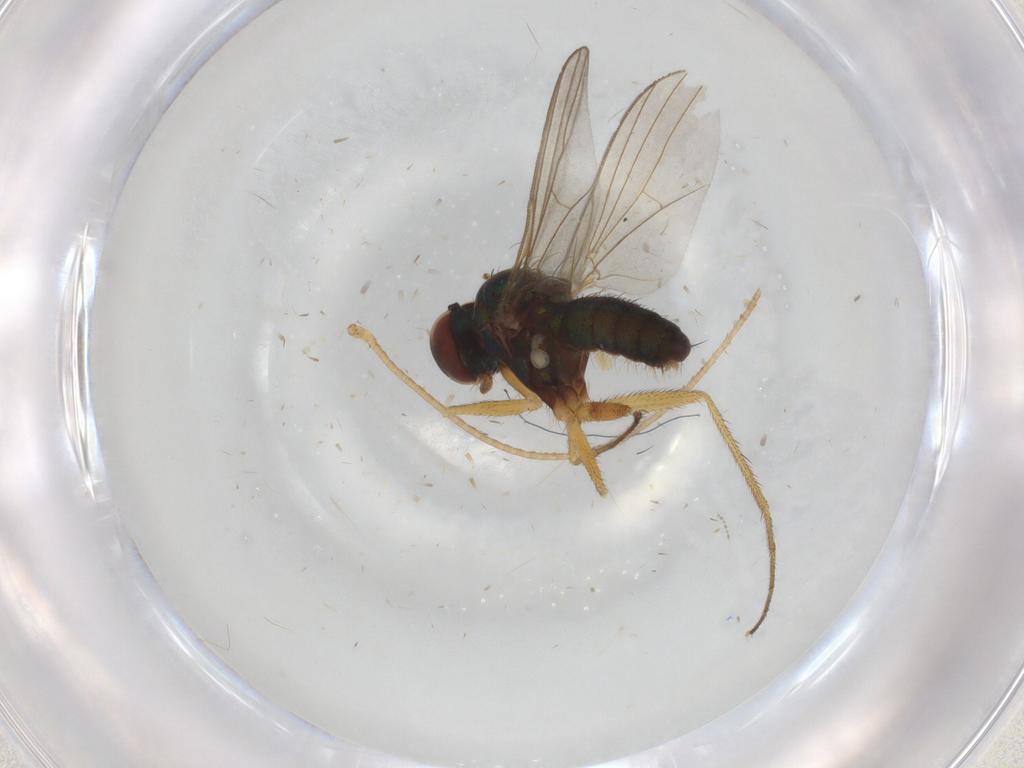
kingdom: Animalia
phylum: Arthropoda
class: Insecta
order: Diptera
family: Chironomidae
